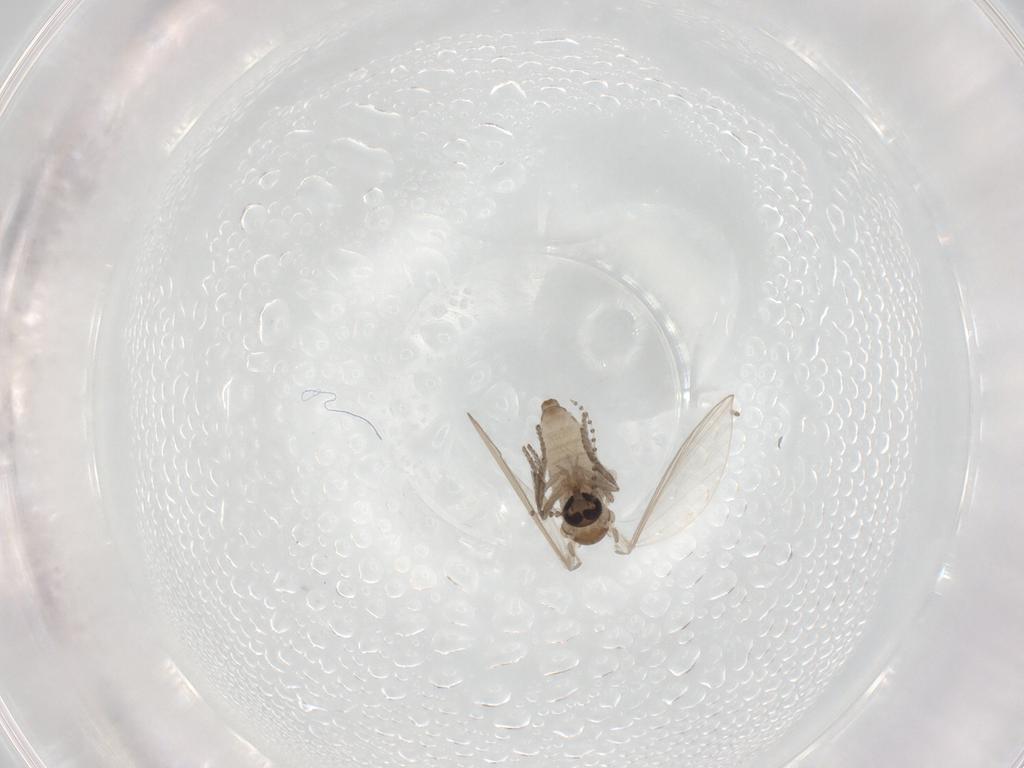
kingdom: Animalia
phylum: Arthropoda
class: Insecta
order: Diptera
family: Psychodidae
